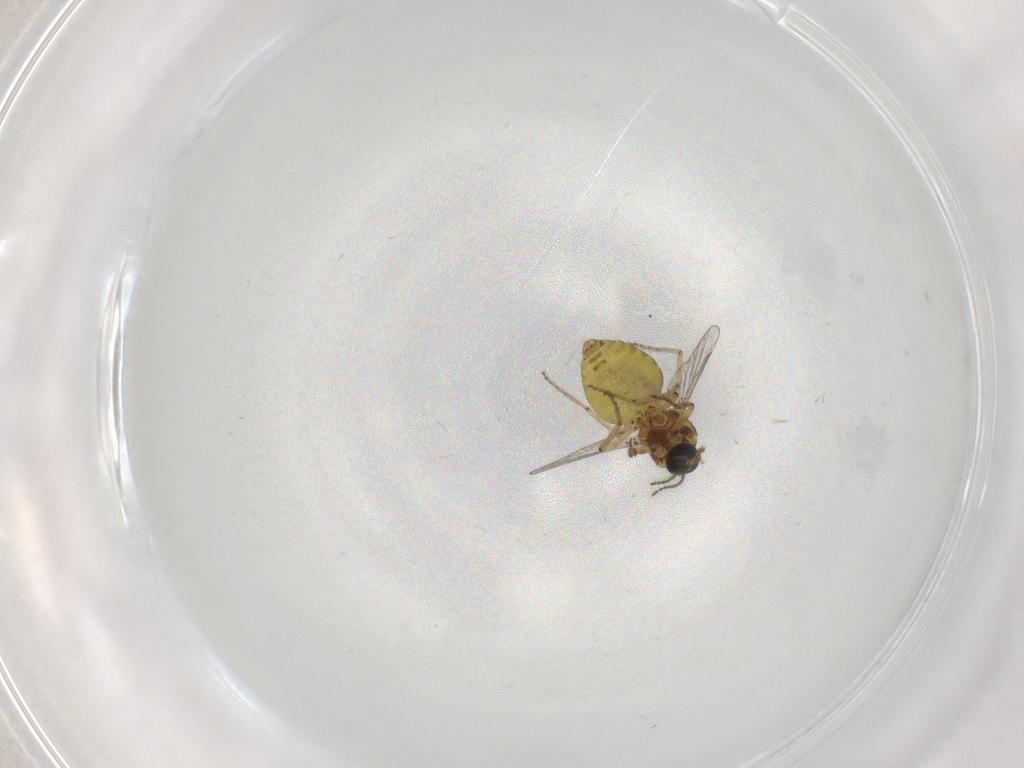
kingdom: Animalia
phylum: Arthropoda
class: Insecta
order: Diptera
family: Ceratopogonidae
